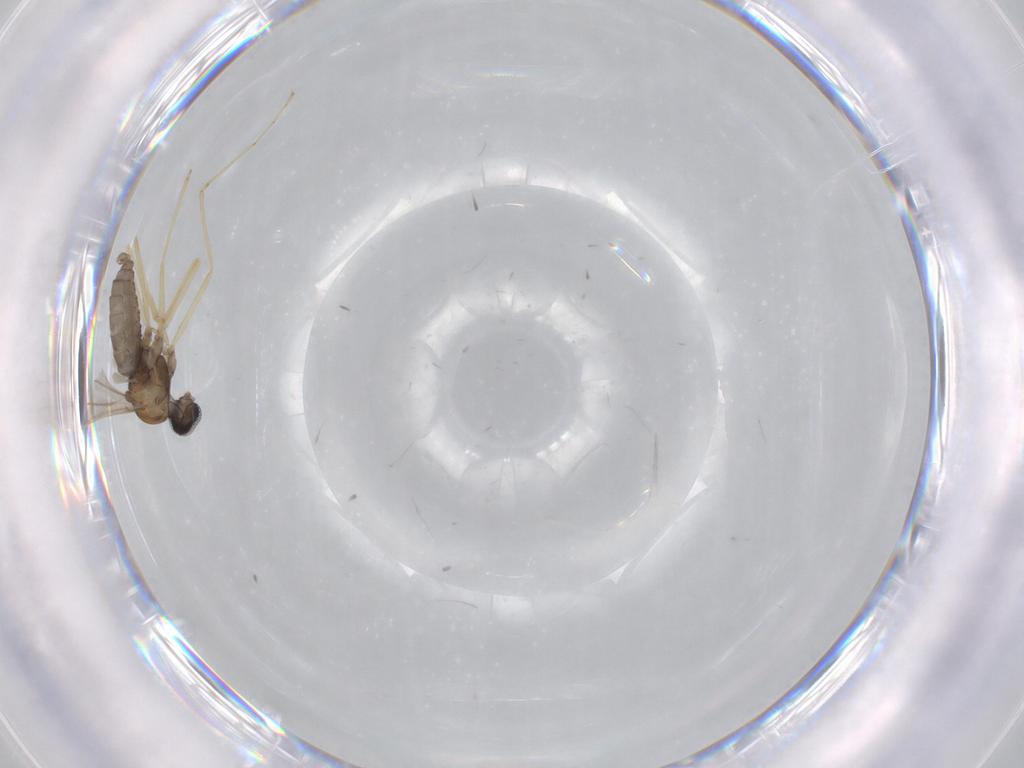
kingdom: Animalia
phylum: Arthropoda
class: Insecta
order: Diptera
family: Cecidomyiidae
